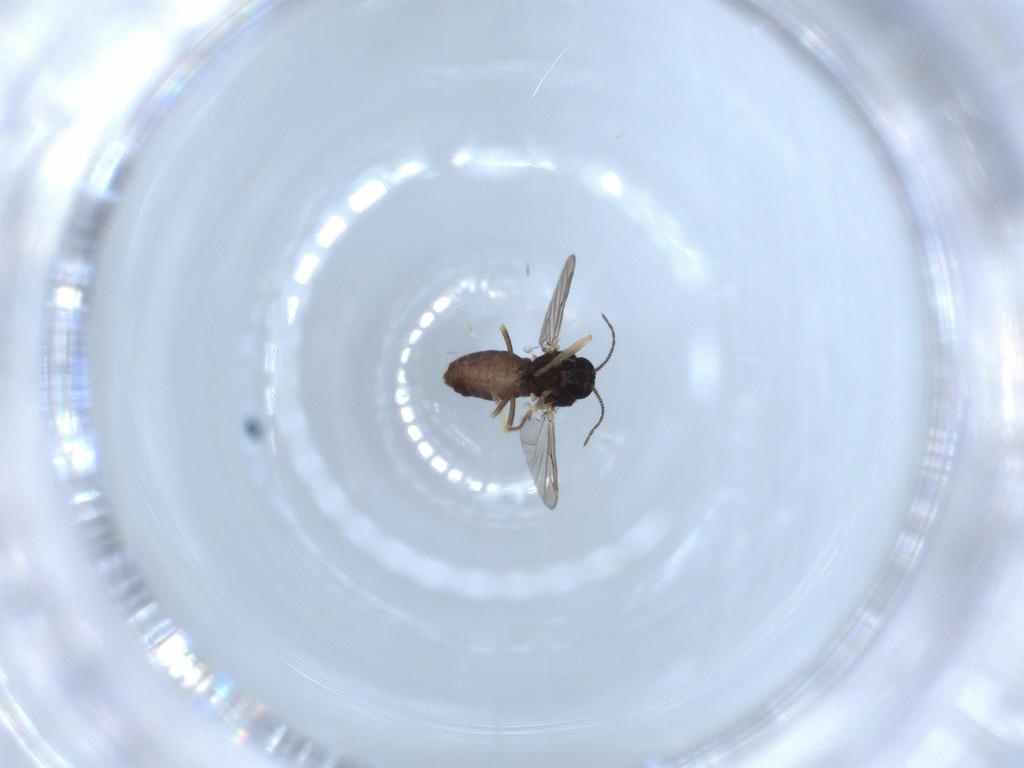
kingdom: Animalia
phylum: Arthropoda
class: Insecta
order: Diptera
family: Ceratopogonidae
